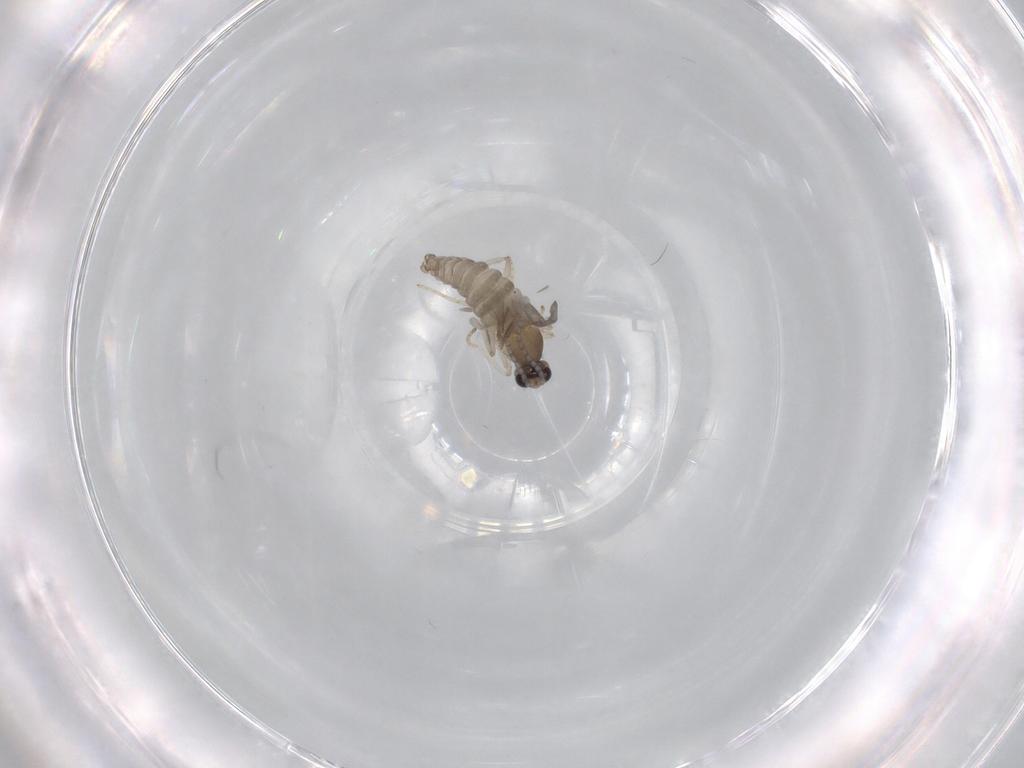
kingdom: Animalia
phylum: Arthropoda
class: Insecta
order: Diptera
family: Cecidomyiidae
